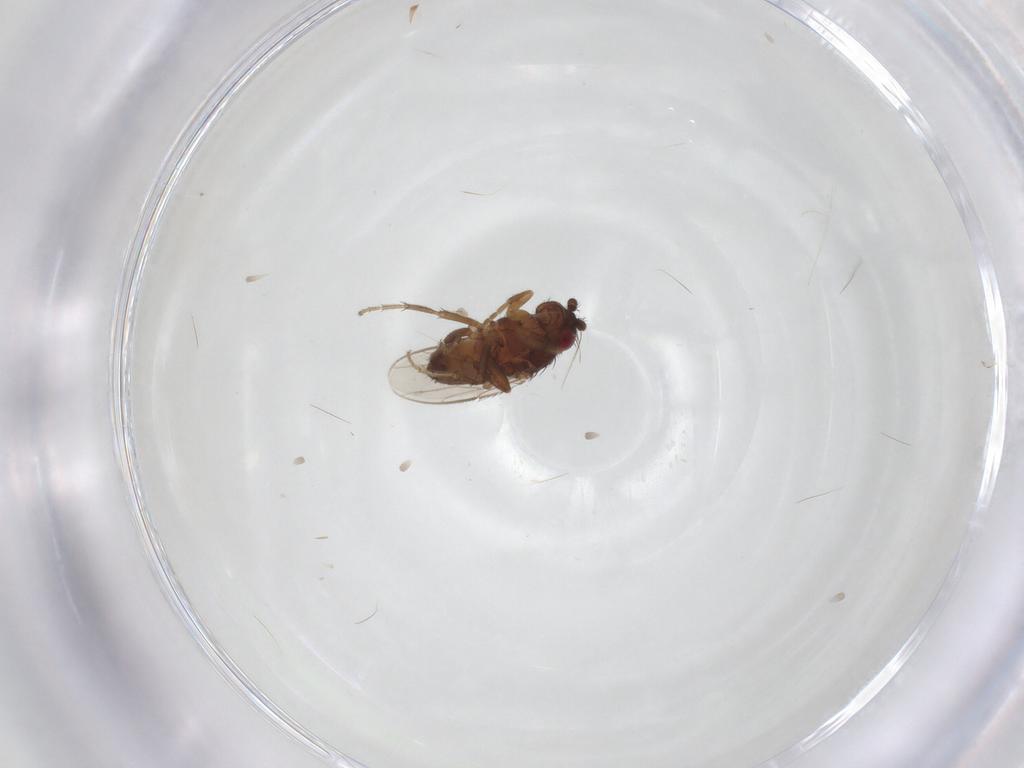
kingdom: Animalia
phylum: Arthropoda
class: Insecta
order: Diptera
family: Sphaeroceridae
